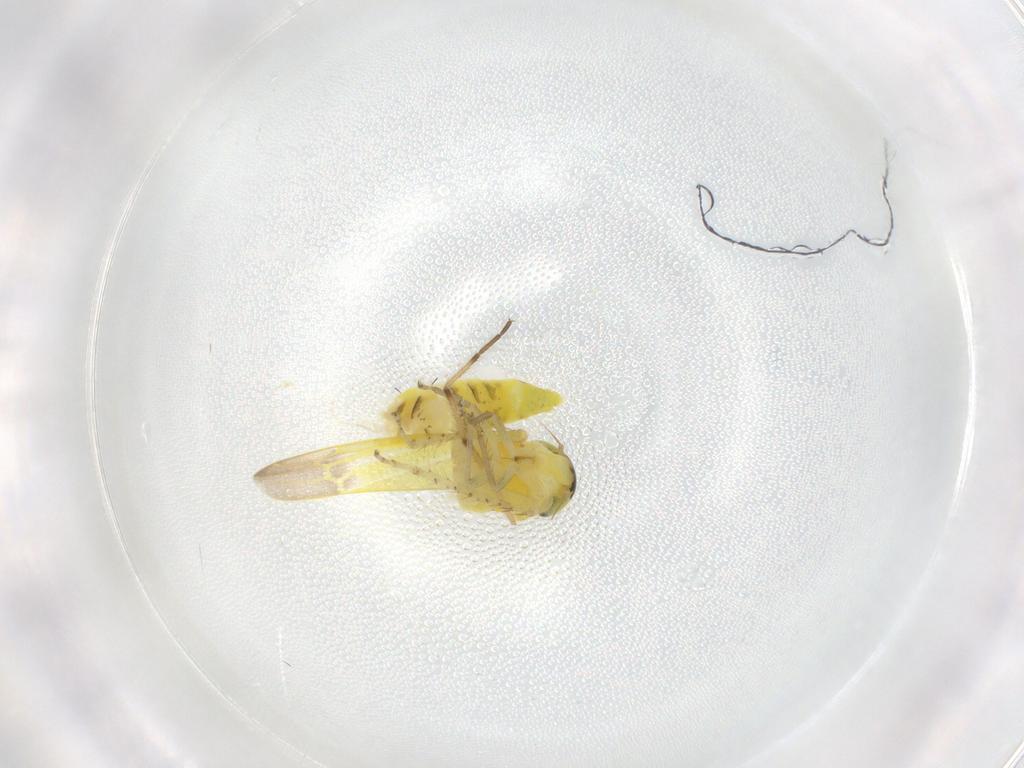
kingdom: Animalia
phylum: Arthropoda
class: Insecta
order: Hemiptera
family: Cicadellidae
